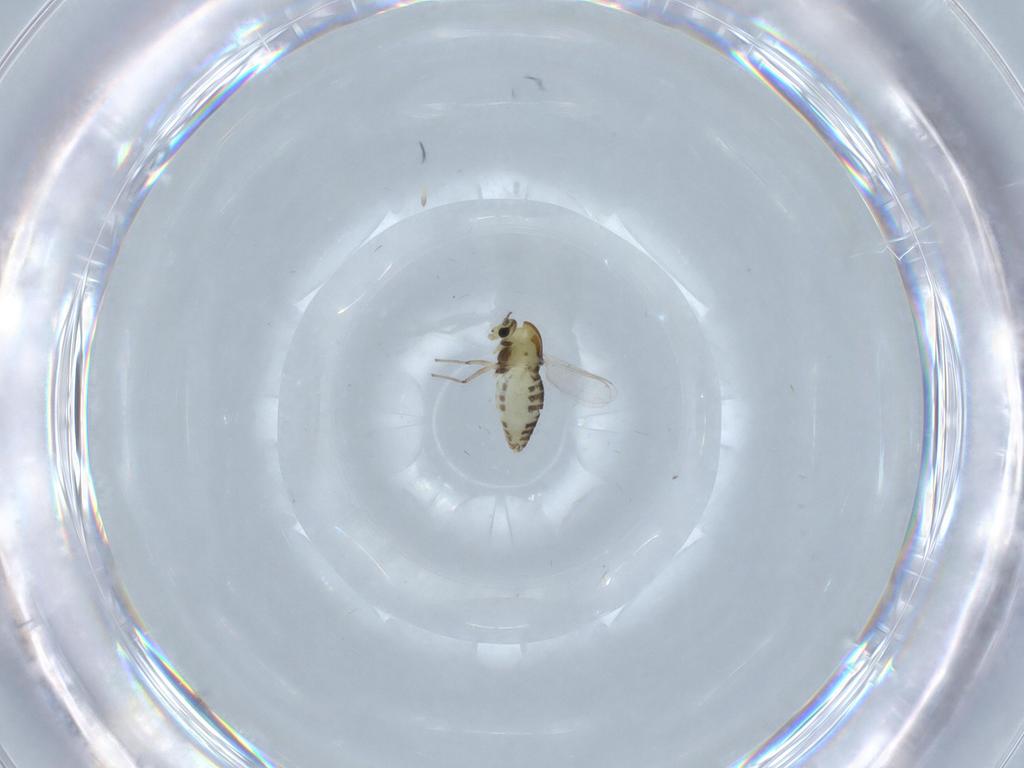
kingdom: Animalia
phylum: Arthropoda
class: Insecta
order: Diptera
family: Chironomidae
